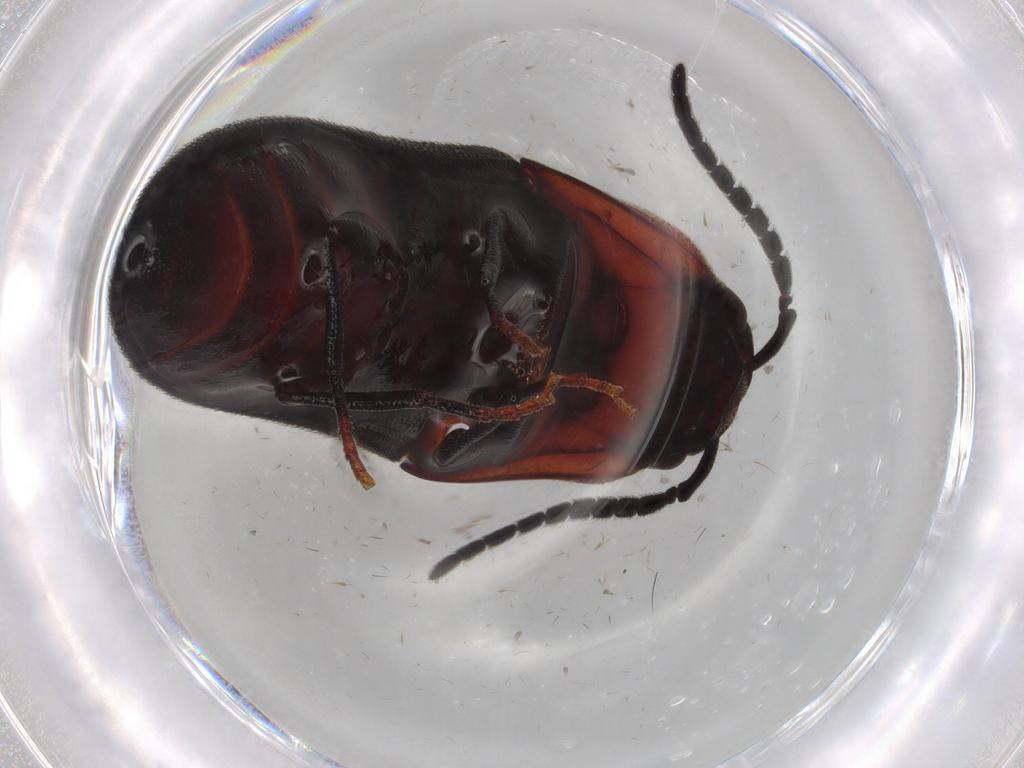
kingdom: Animalia
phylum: Arthropoda
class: Insecta
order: Coleoptera
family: Eucnemidae
